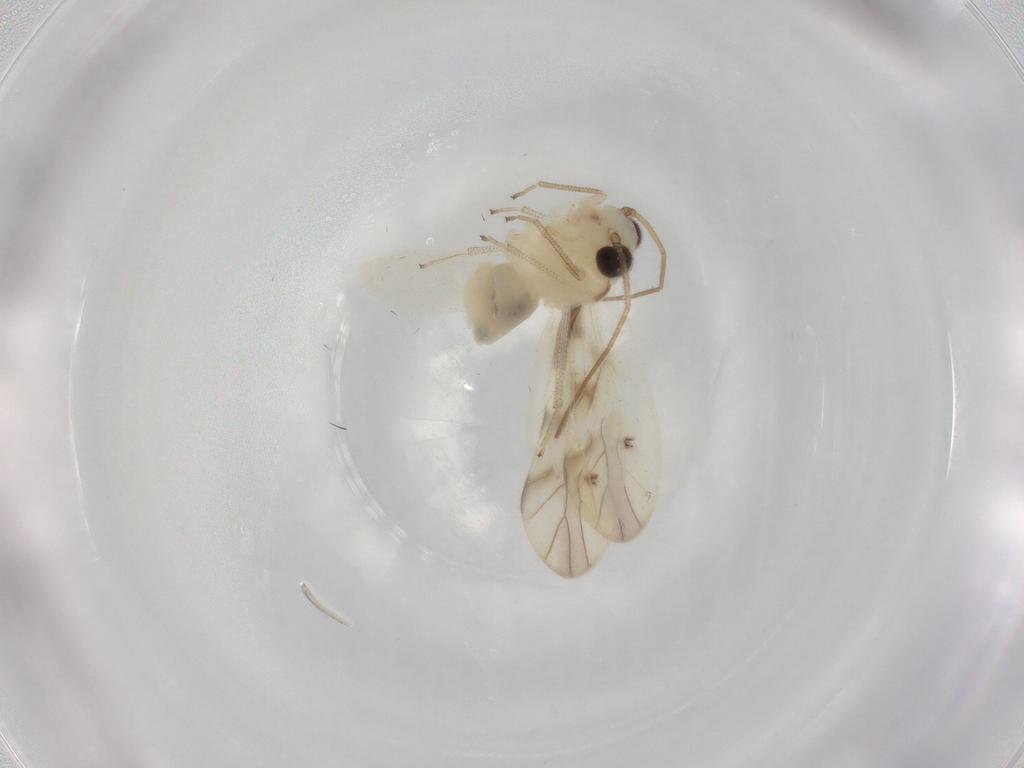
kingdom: Animalia
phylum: Arthropoda
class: Insecta
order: Psocodea
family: Caeciliusidae
